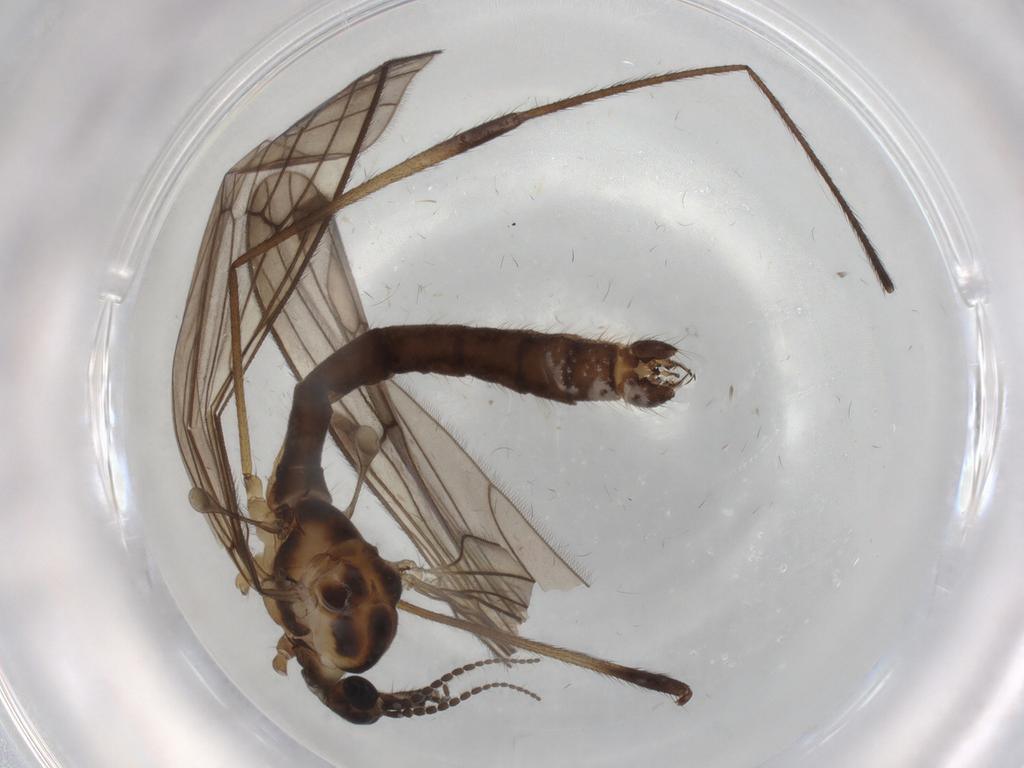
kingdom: Animalia
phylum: Arthropoda
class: Insecta
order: Diptera
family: Limoniidae
